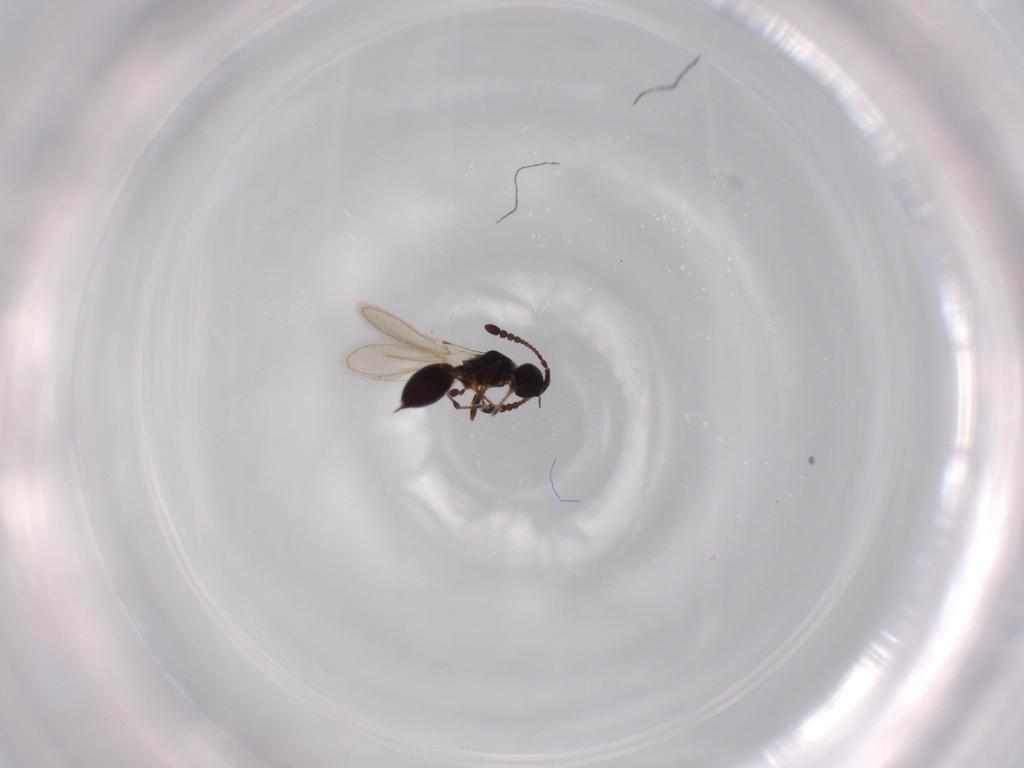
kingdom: Animalia
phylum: Arthropoda
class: Insecta
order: Hymenoptera
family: Diapriidae
